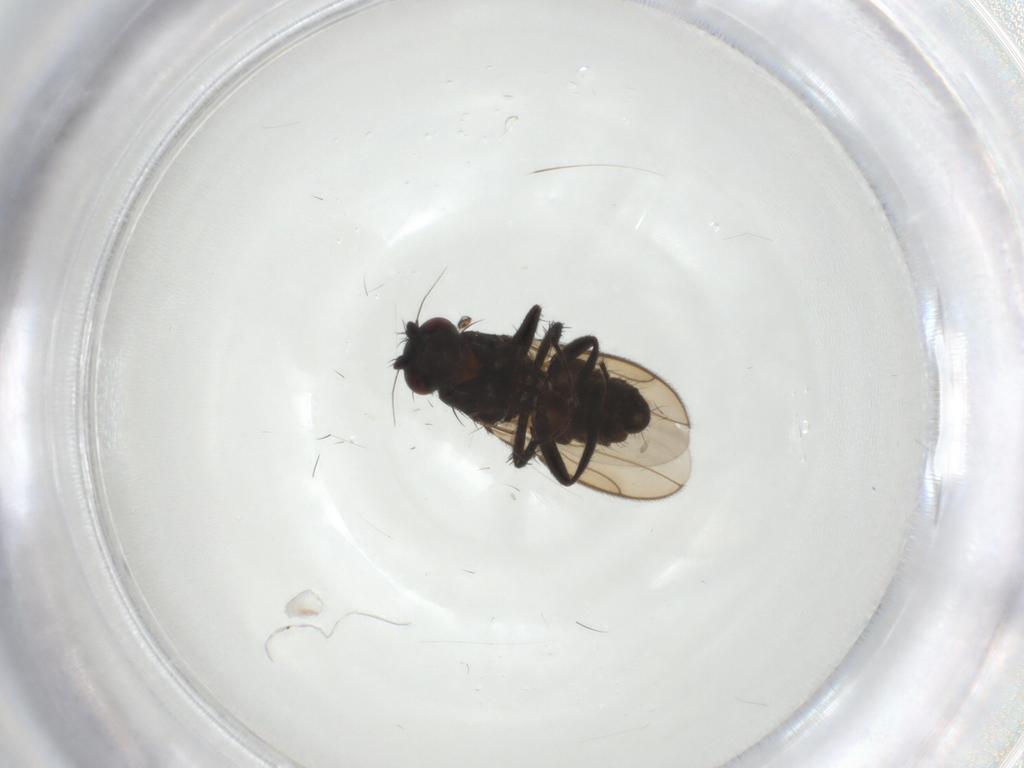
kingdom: Animalia
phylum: Arthropoda
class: Insecta
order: Diptera
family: Sphaeroceridae
